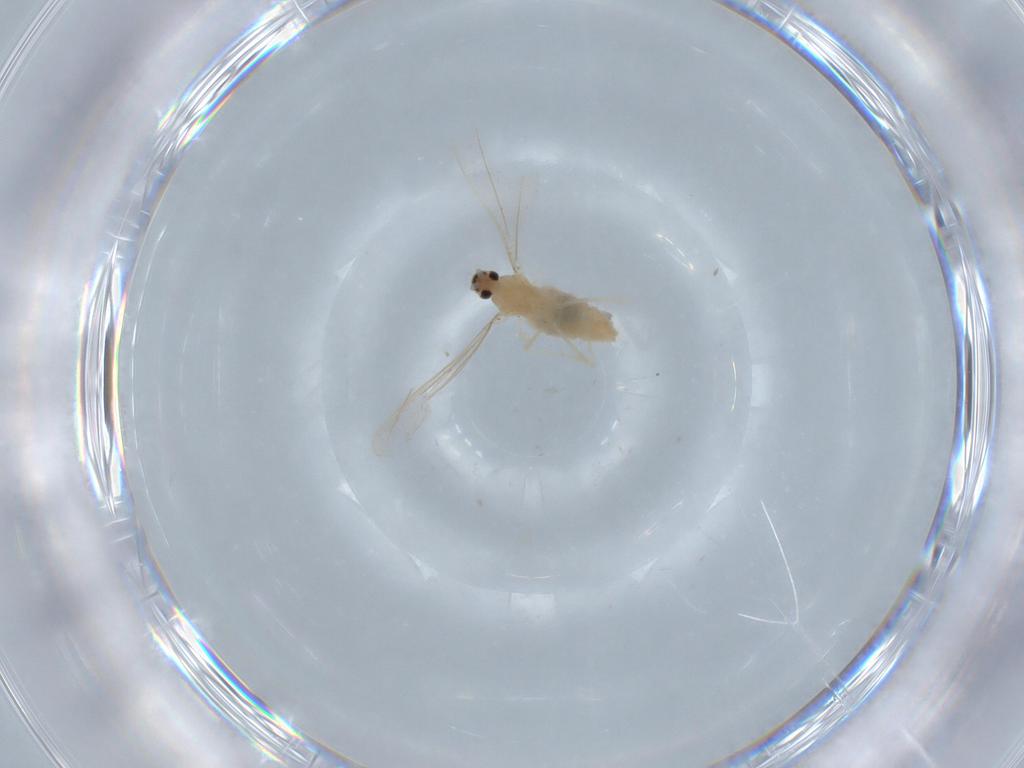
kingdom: Animalia
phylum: Arthropoda
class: Insecta
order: Diptera
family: Cecidomyiidae
